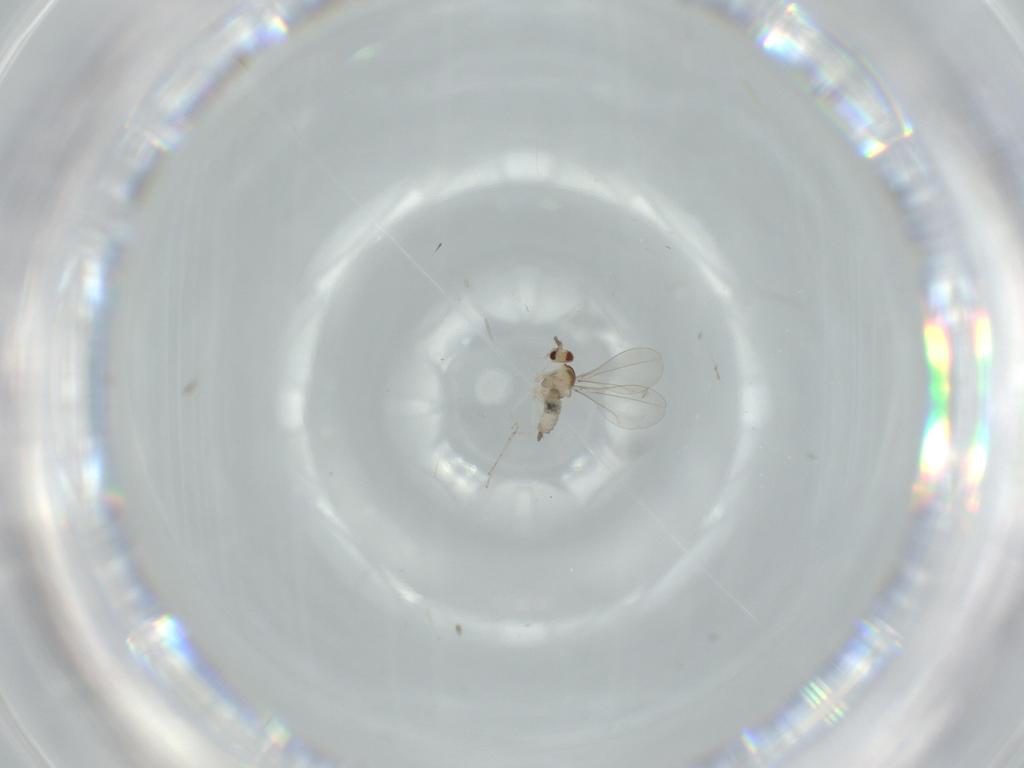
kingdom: Animalia
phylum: Arthropoda
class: Insecta
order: Diptera
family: Cecidomyiidae
